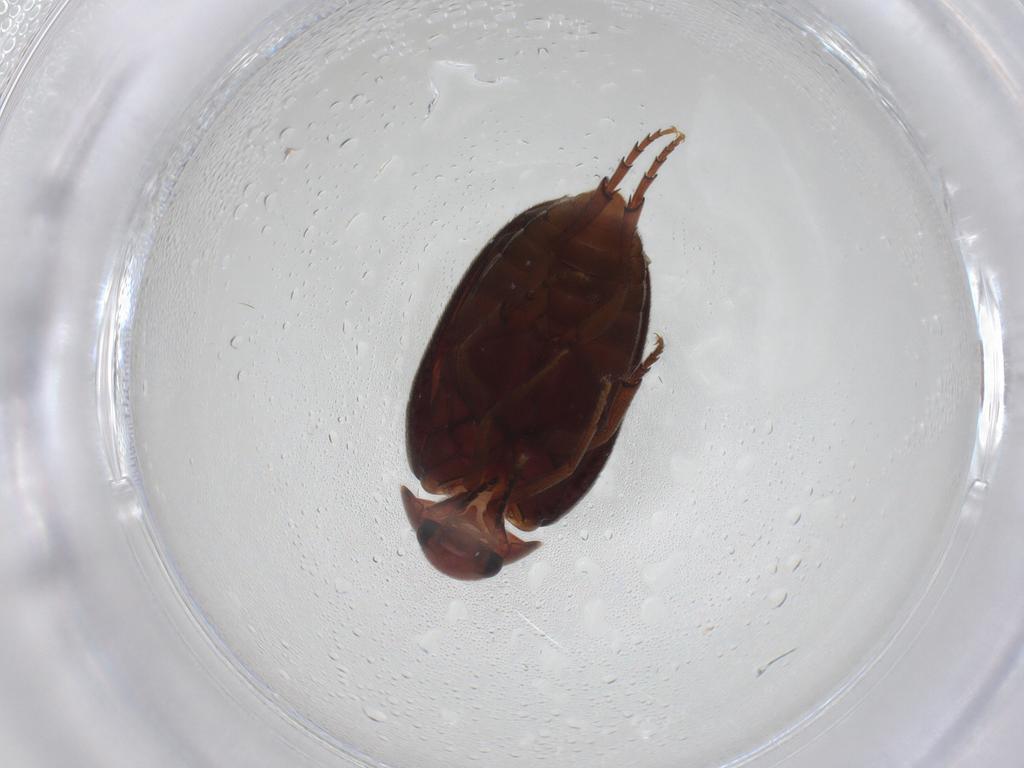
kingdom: Animalia
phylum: Arthropoda
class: Insecta
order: Coleoptera
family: Eucinetidae
